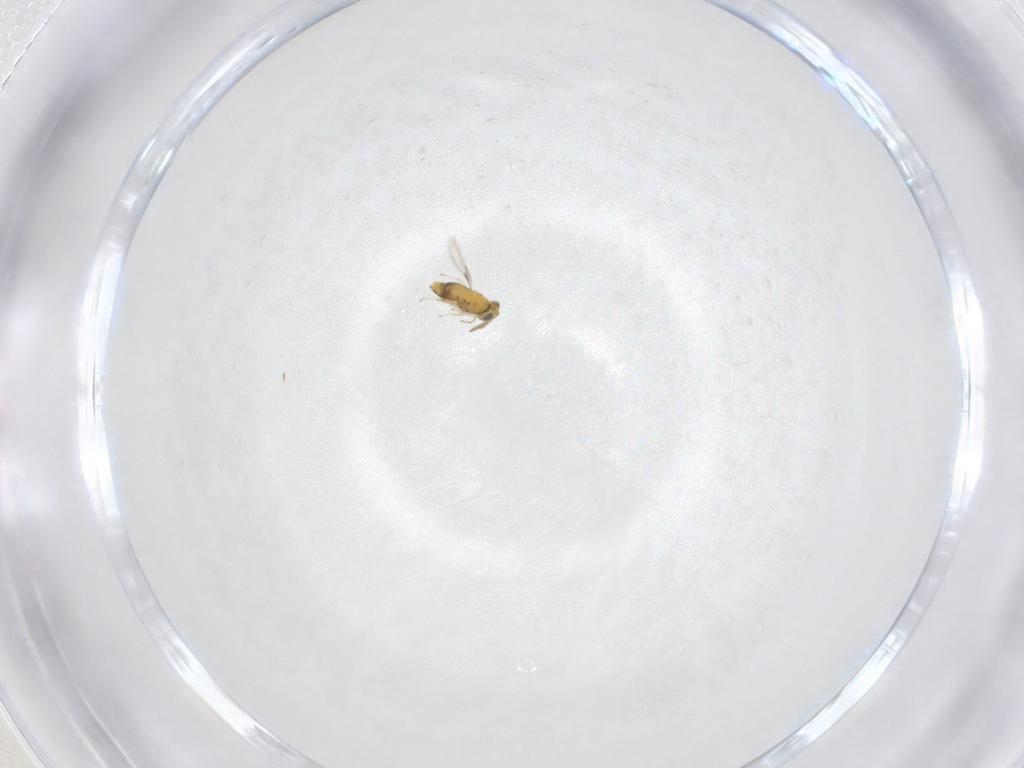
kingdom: Animalia
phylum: Arthropoda
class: Insecta
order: Hymenoptera
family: Aphelinidae
